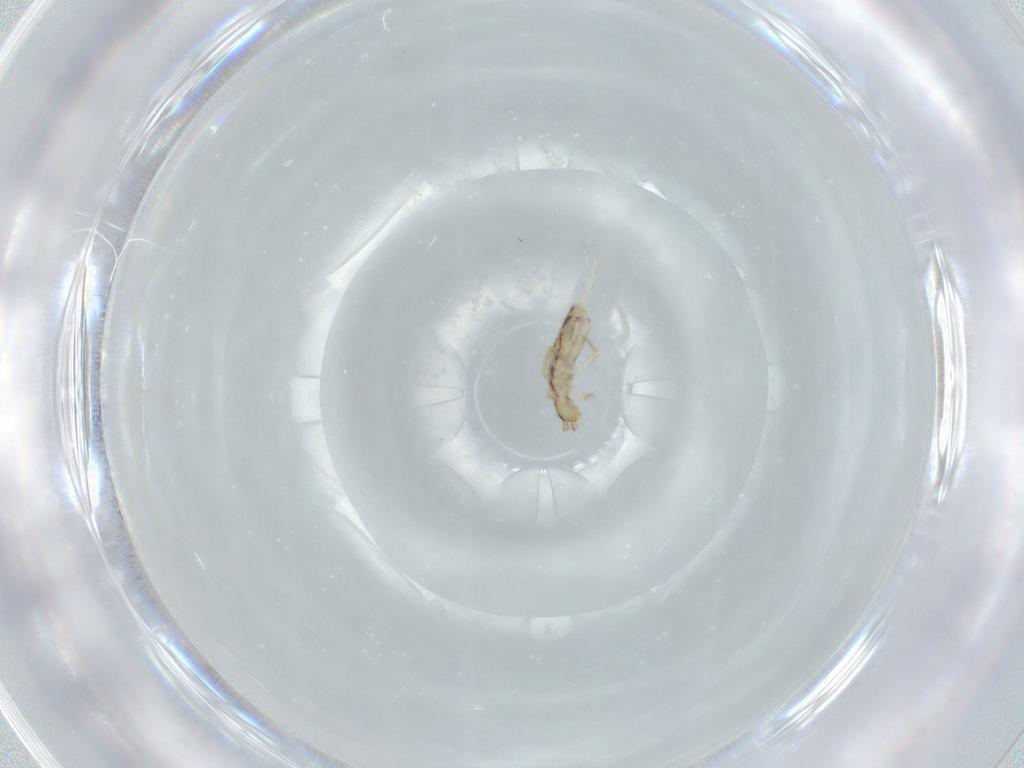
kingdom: Animalia
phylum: Arthropoda
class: Collembola
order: Entomobryomorpha
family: Entomobryidae
